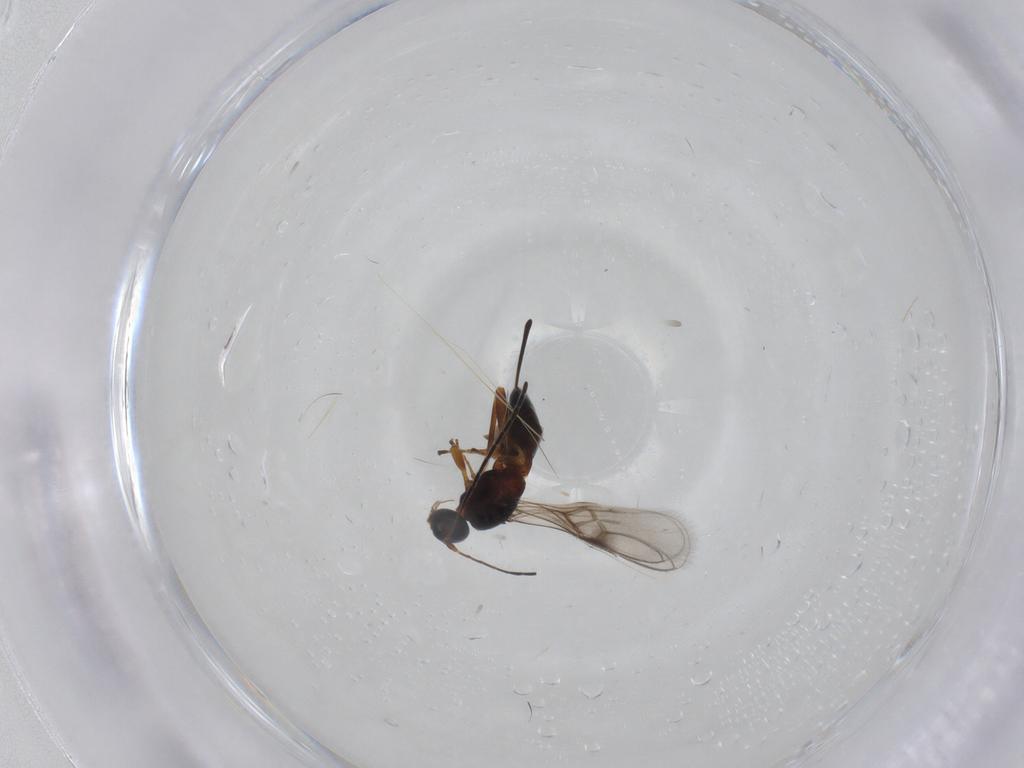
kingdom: Animalia
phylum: Arthropoda
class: Insecta
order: Hymenoptera
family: Braconidae
